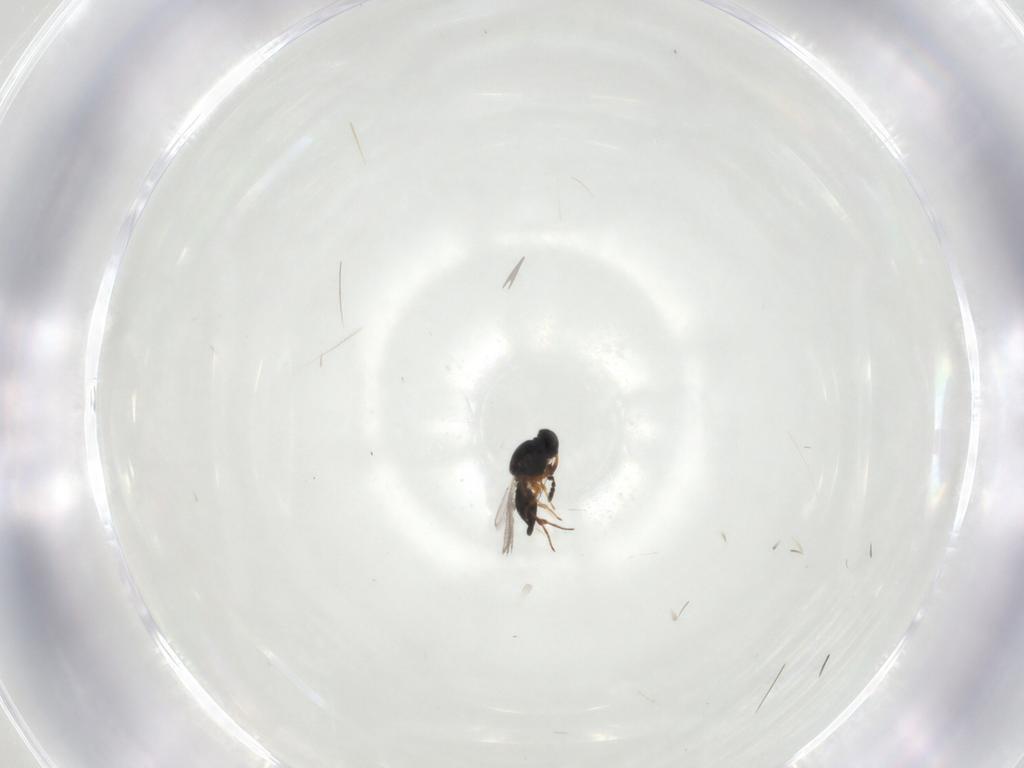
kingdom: Animalia
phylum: Arthropoda
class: Insecta
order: Hymenoptera
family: Platygastridae
